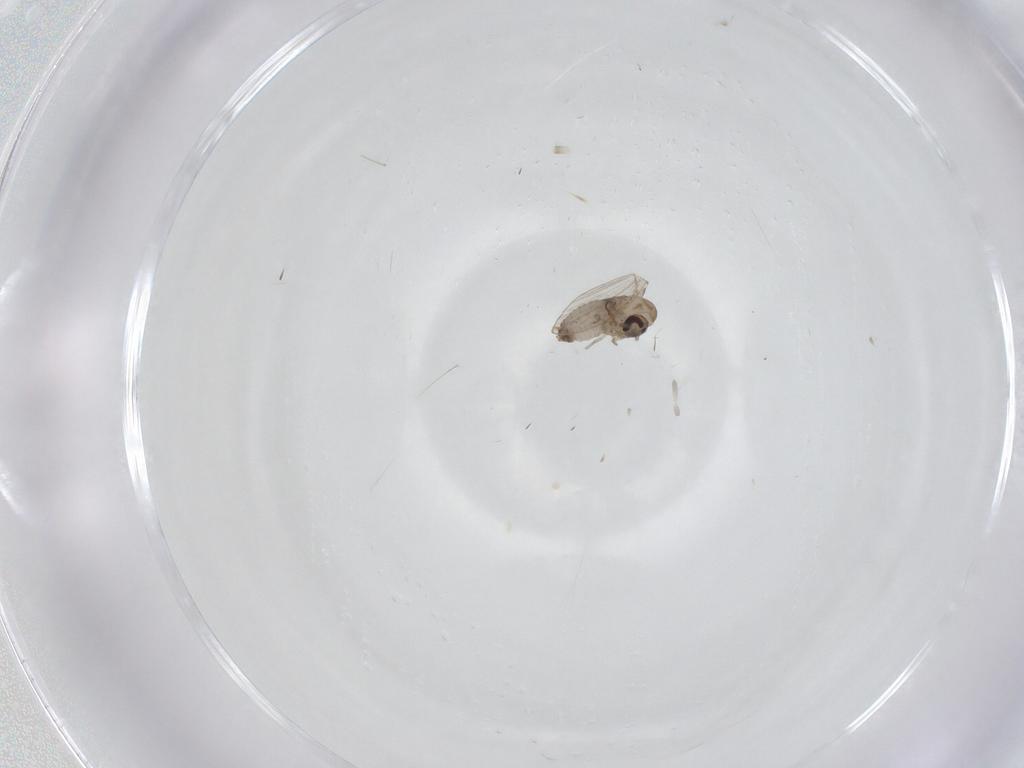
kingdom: Animalia
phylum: Arthropoda
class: Insecta
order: Diptera
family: Psychodidae
